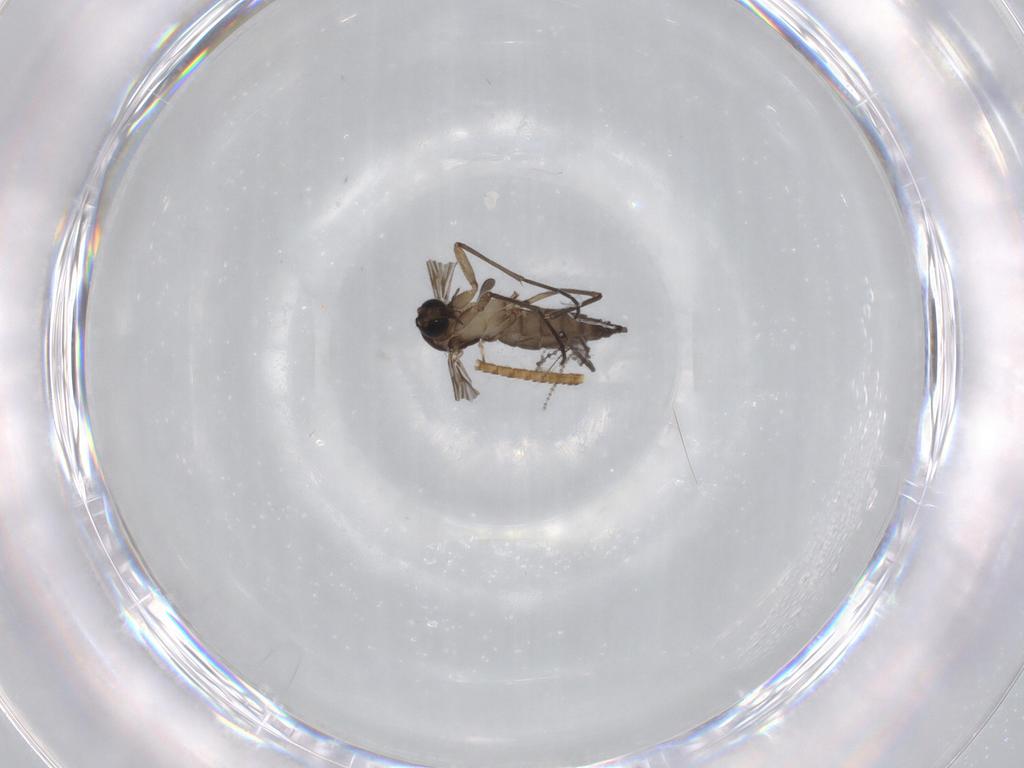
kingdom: Animalia
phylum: Arthropoda
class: Insecta
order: Diptera
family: Sciaridae
